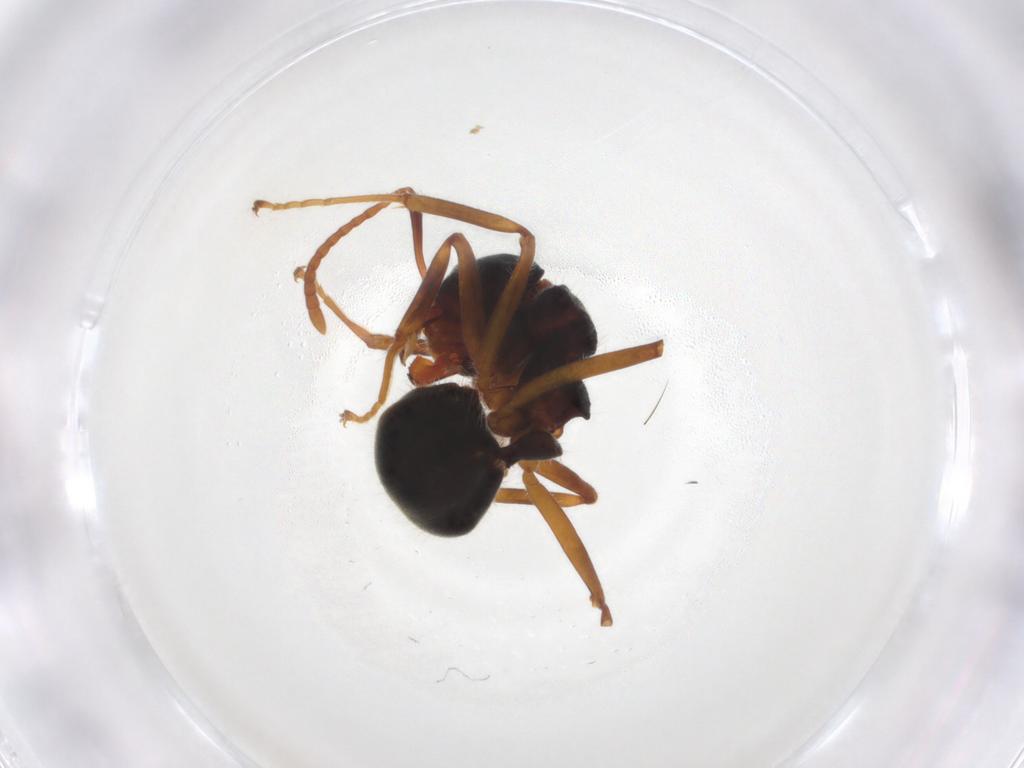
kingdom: Animalia
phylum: Arthropoda
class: Insecta
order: Hymenoptera
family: Formicidae
